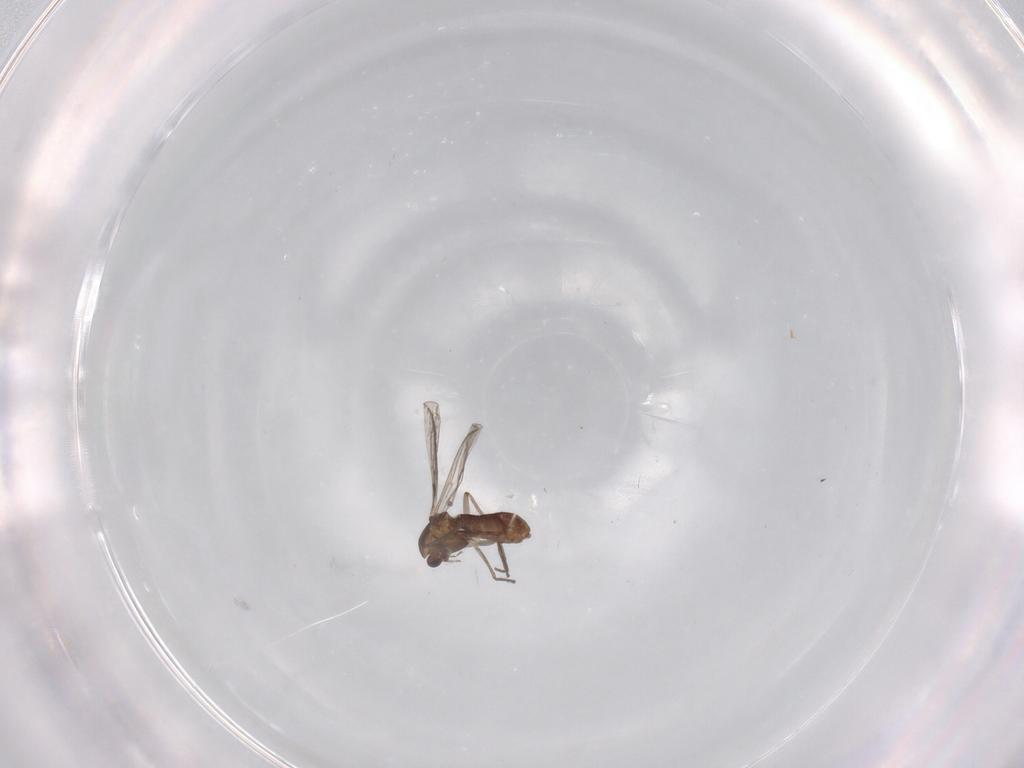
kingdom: Animalia
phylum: Arthropoda
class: Insecta
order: Diptera
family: Chironomidae
